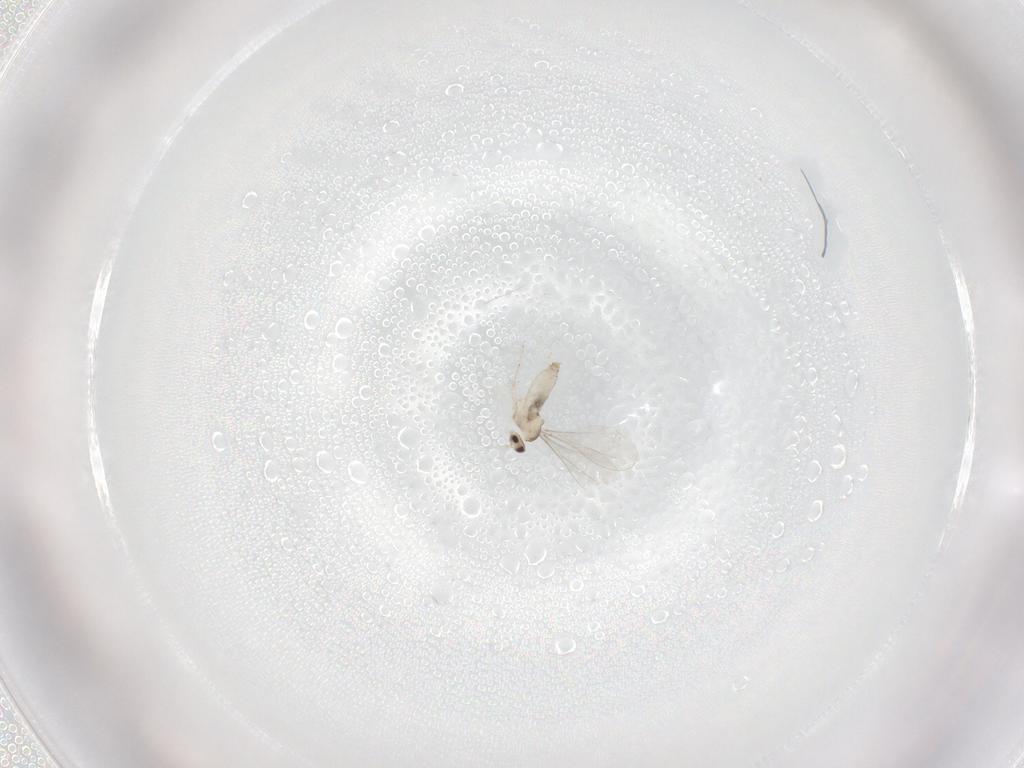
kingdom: Animalia
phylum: Arthropoda
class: Insecta
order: Diptera
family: Cecidomyiidae
